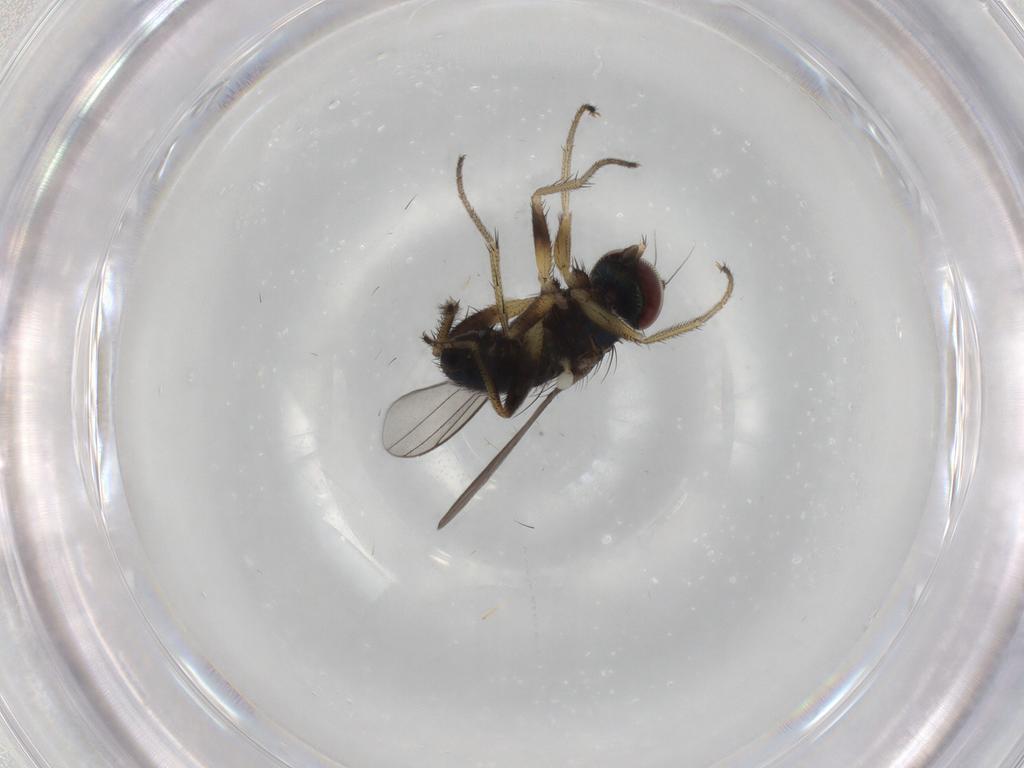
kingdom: Animalia
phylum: Arthropoda
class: Insecta
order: Diptera
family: Dolichopodidae
